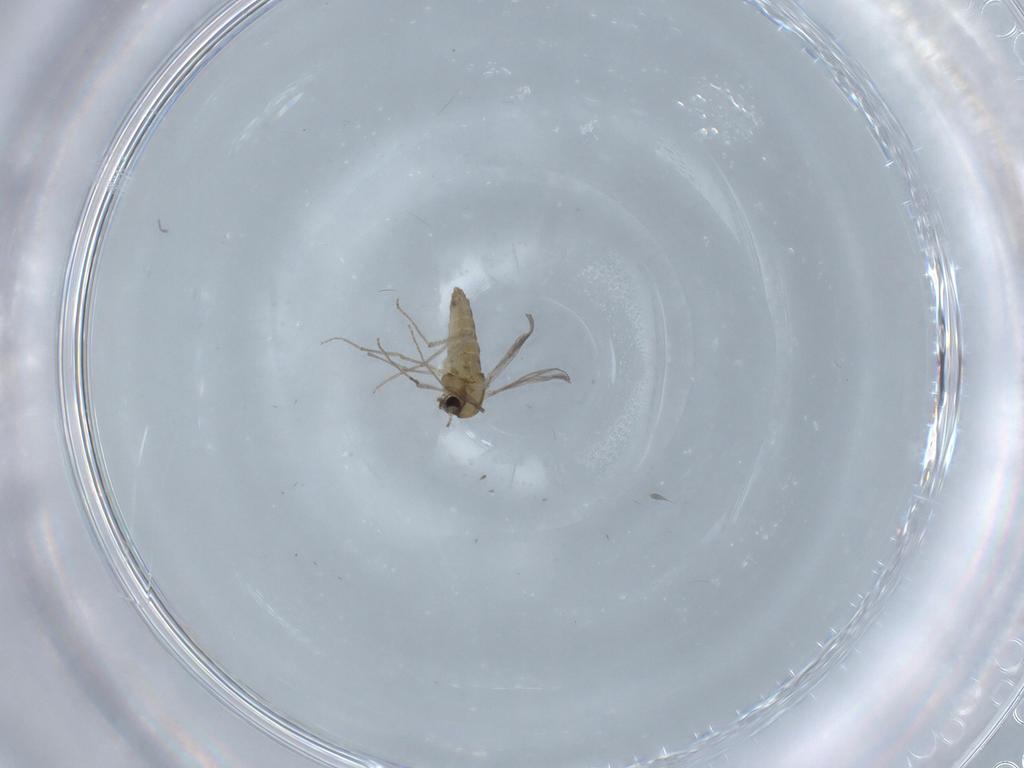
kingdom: Animalia
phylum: Arthropoda
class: Insecta
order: Diptera
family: Chironomidae
